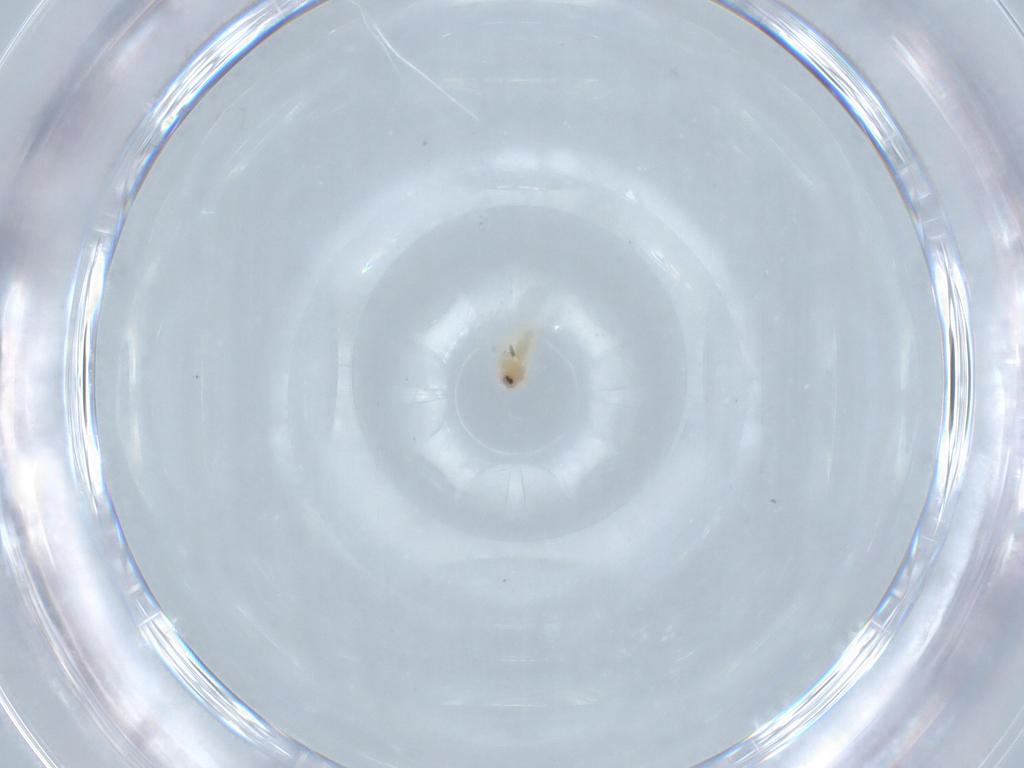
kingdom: Animalia
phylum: Arthropoda
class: Insecta
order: Hemiptera
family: Aleyrodidae
